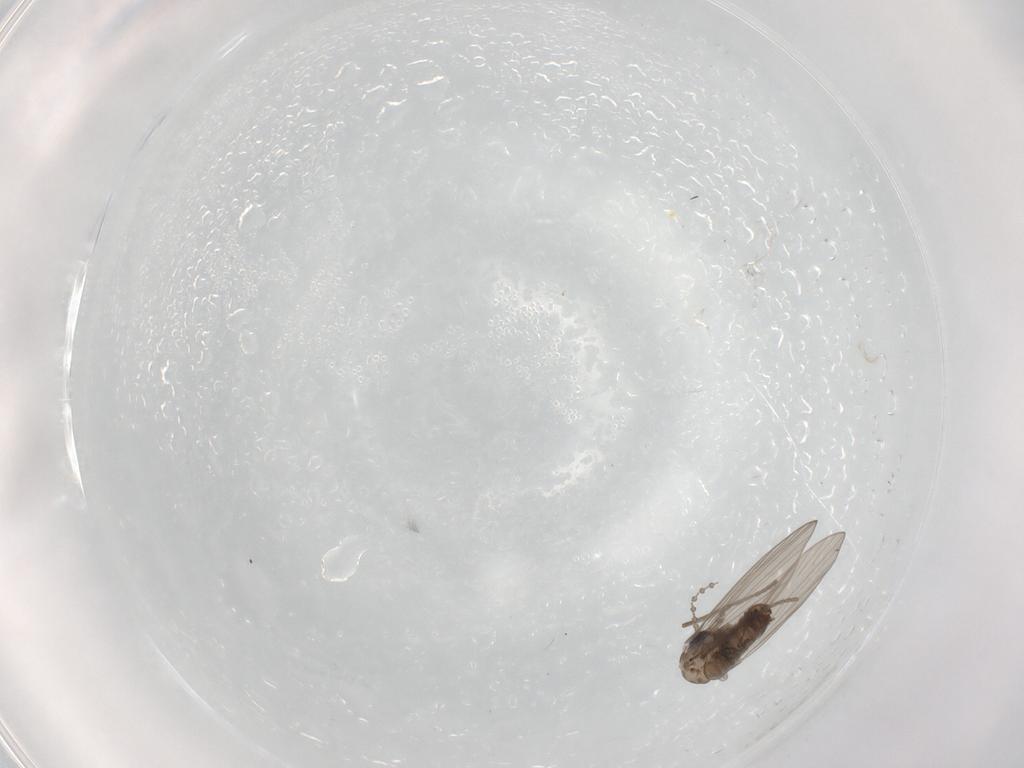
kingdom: Animalia
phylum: Arthropoda
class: Insecta
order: Diptera
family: Psychodidae
